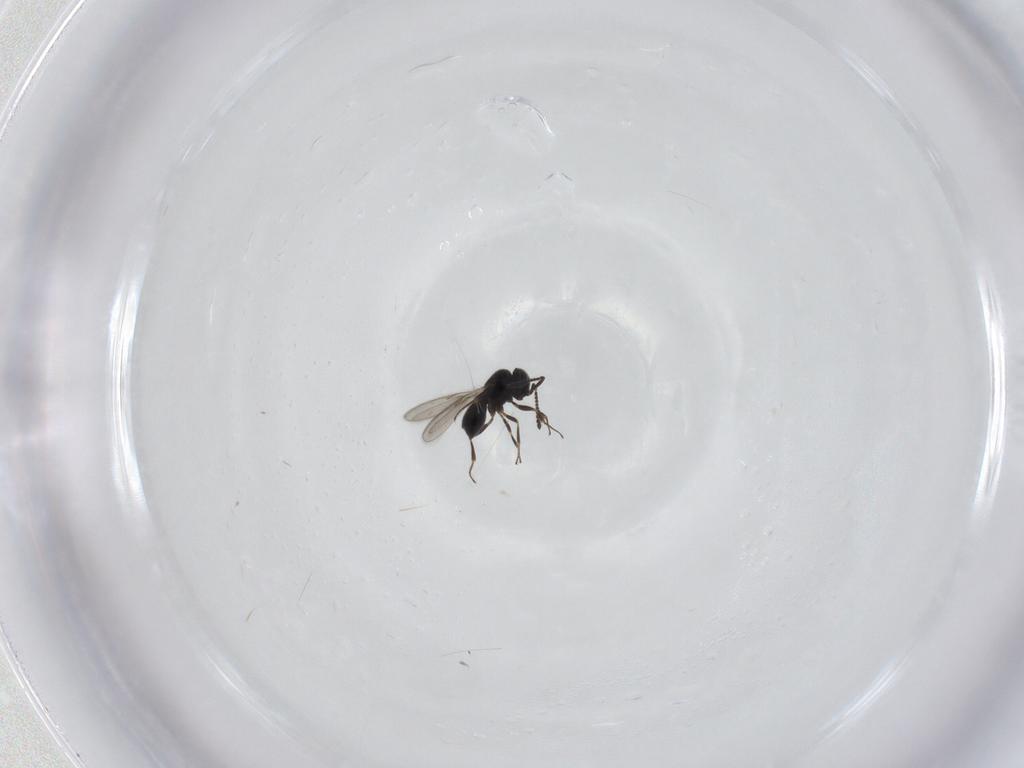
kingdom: Animalia
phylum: Arthropoda
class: Insecta
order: Hymenoptera
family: Scelionidae
